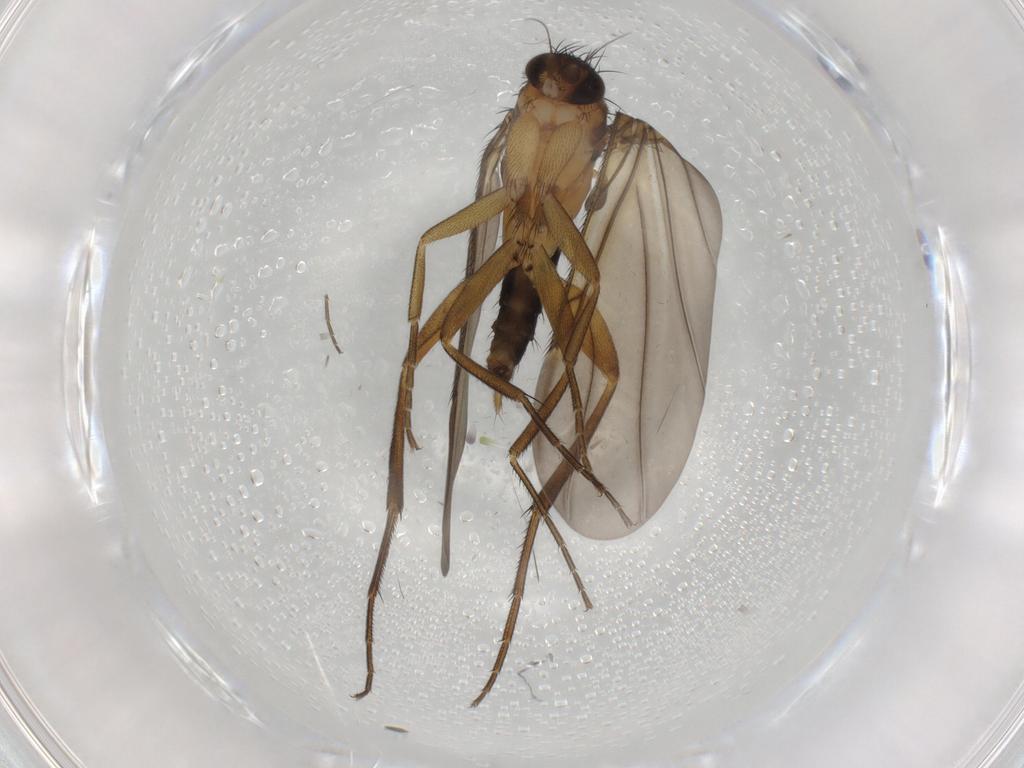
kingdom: Animalia
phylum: Arthropoda
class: Insecta
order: Diptera
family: Phoridae
